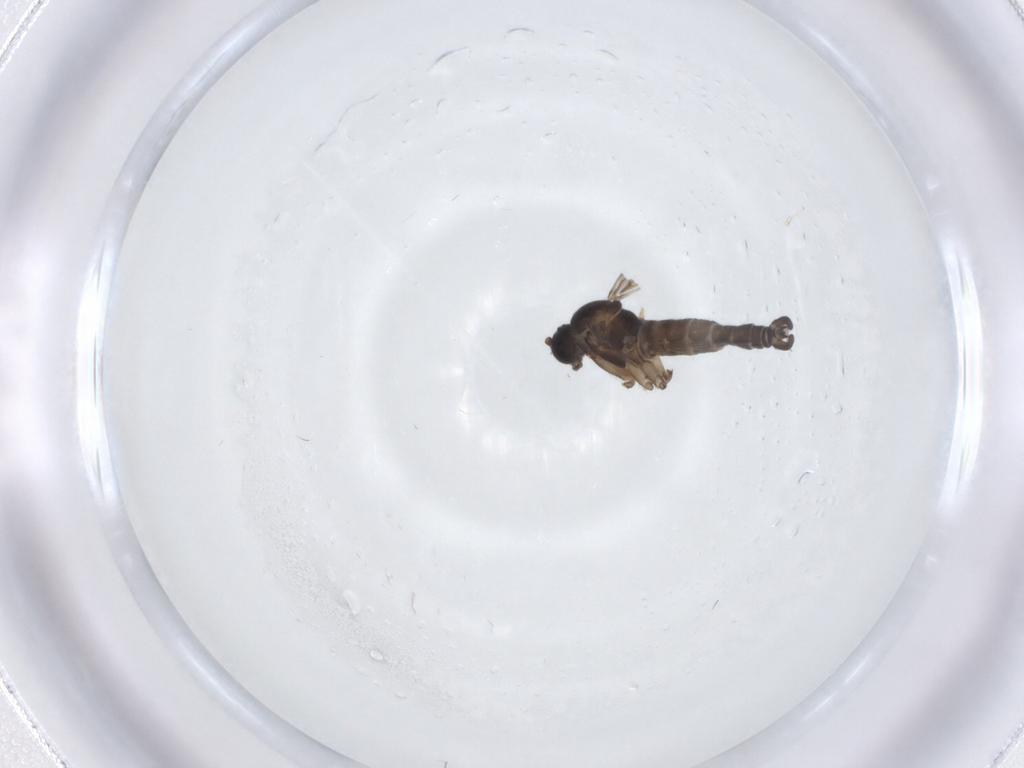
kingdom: Animalia
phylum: Arthropoda
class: Insecta
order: Diptera
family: Sciaridae
